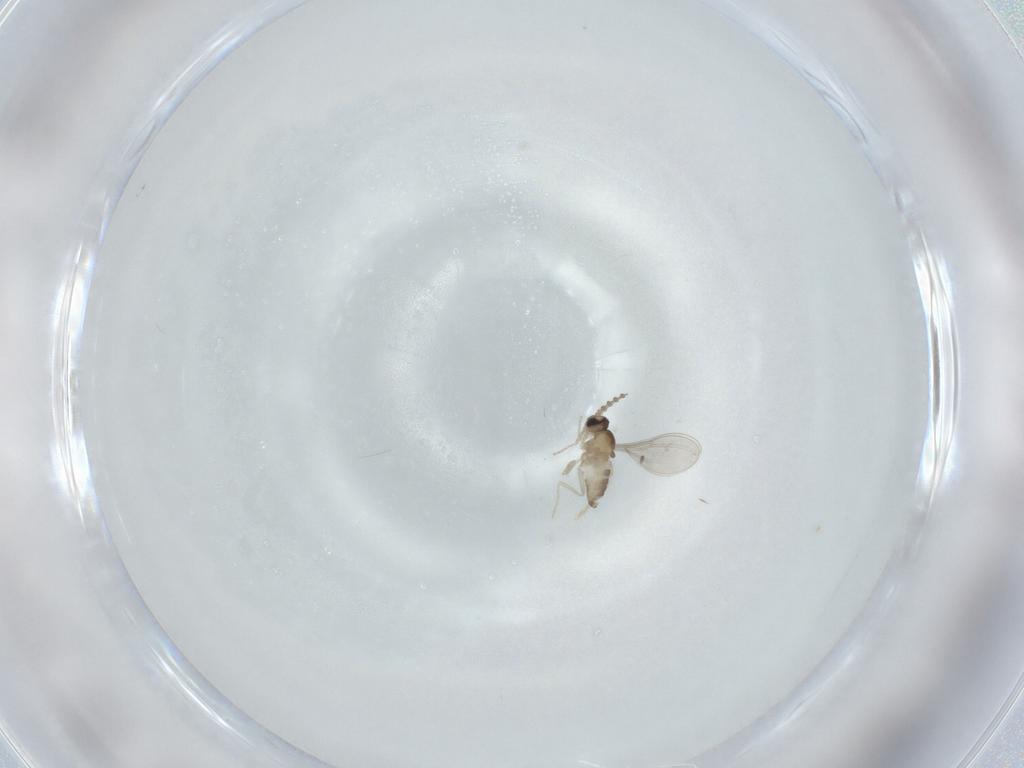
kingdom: Animalia
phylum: Arthropoda
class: Insecta
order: Diptera
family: Cecidomyiidae
